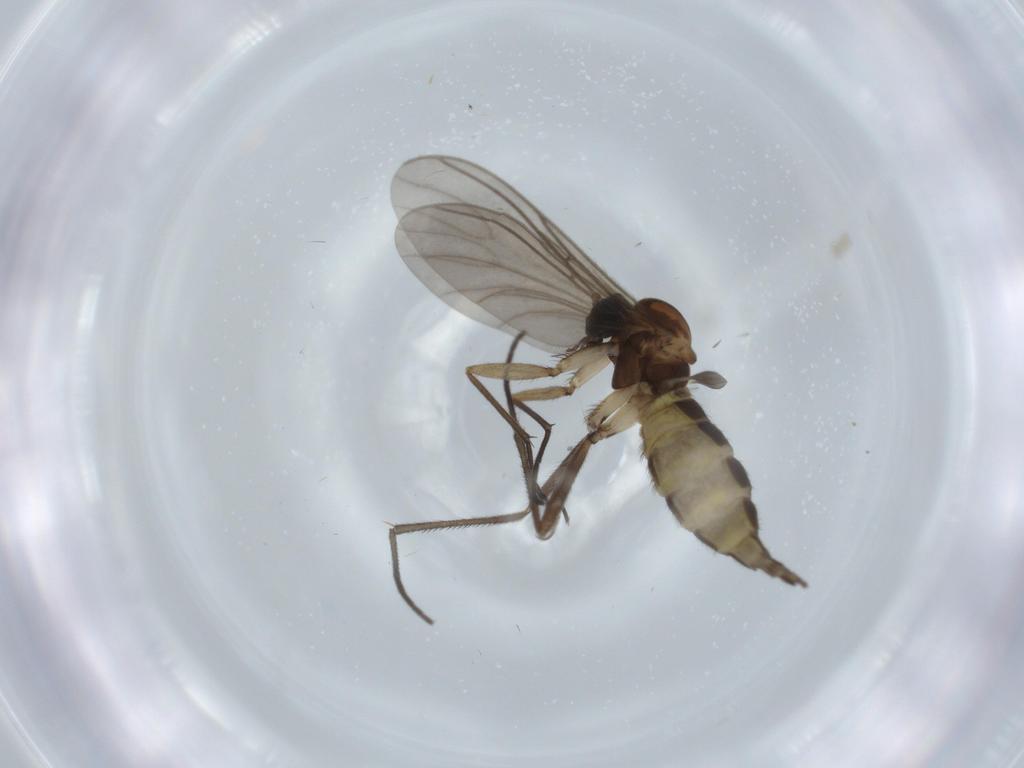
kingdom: Animalia
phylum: Arthropoda
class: Insecta
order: Diptera
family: Sciaridae
